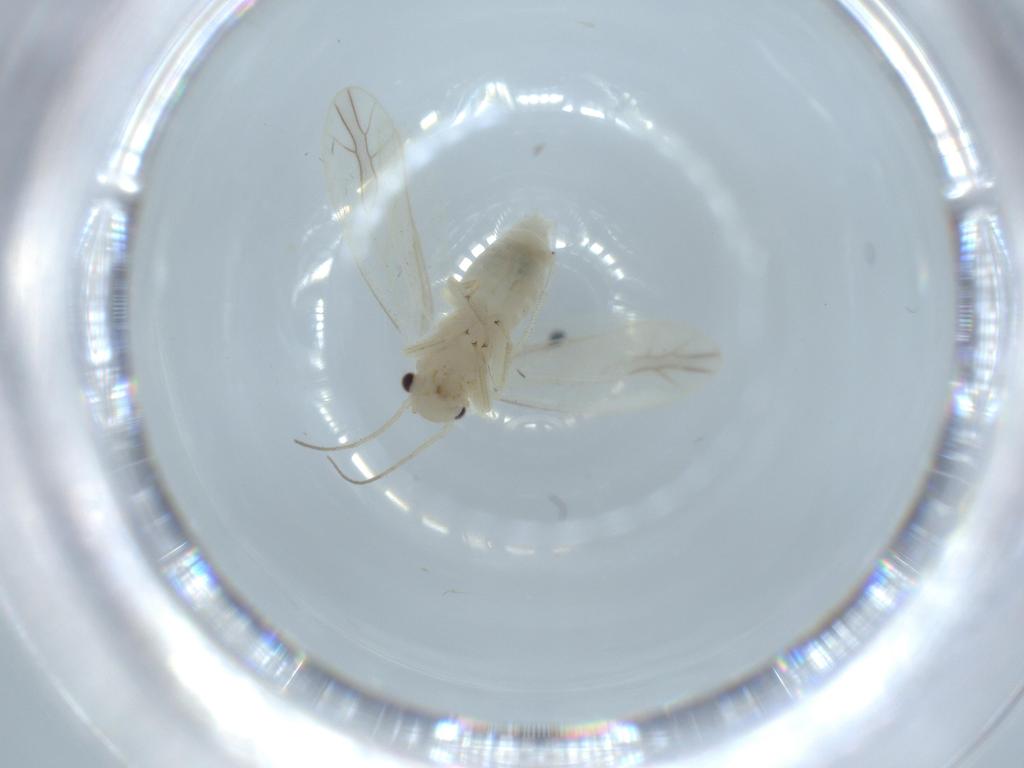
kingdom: Animalia
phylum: Arthropoda
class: Insecta
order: Psocodea
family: Caeciliusidae
